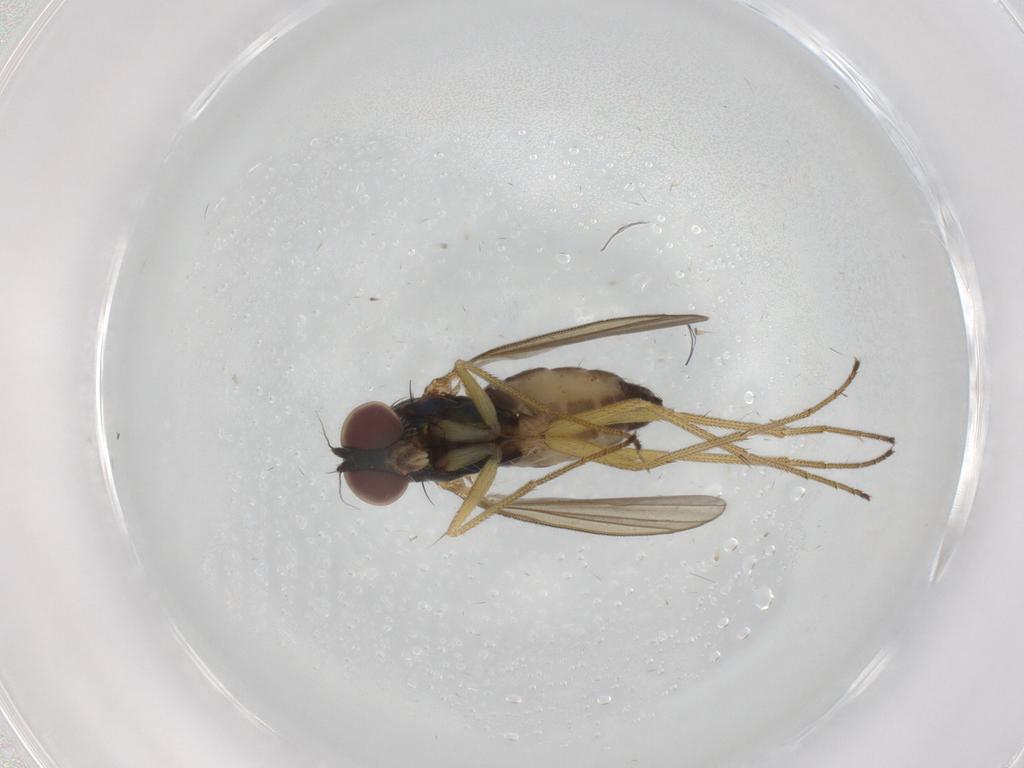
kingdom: Animalia
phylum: Arthropoda
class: Insecta
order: Diptera
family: Dolichopodidae
